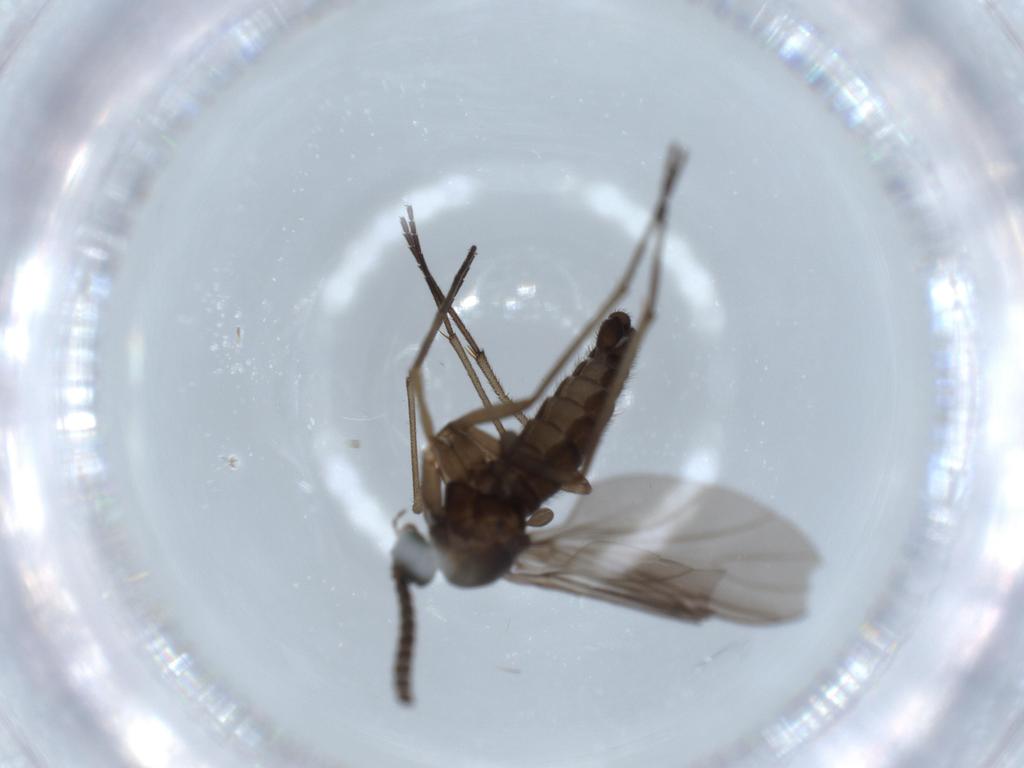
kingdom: Animalia
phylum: Arthropoda
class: Insecta
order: Diptera
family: Sciaridae
